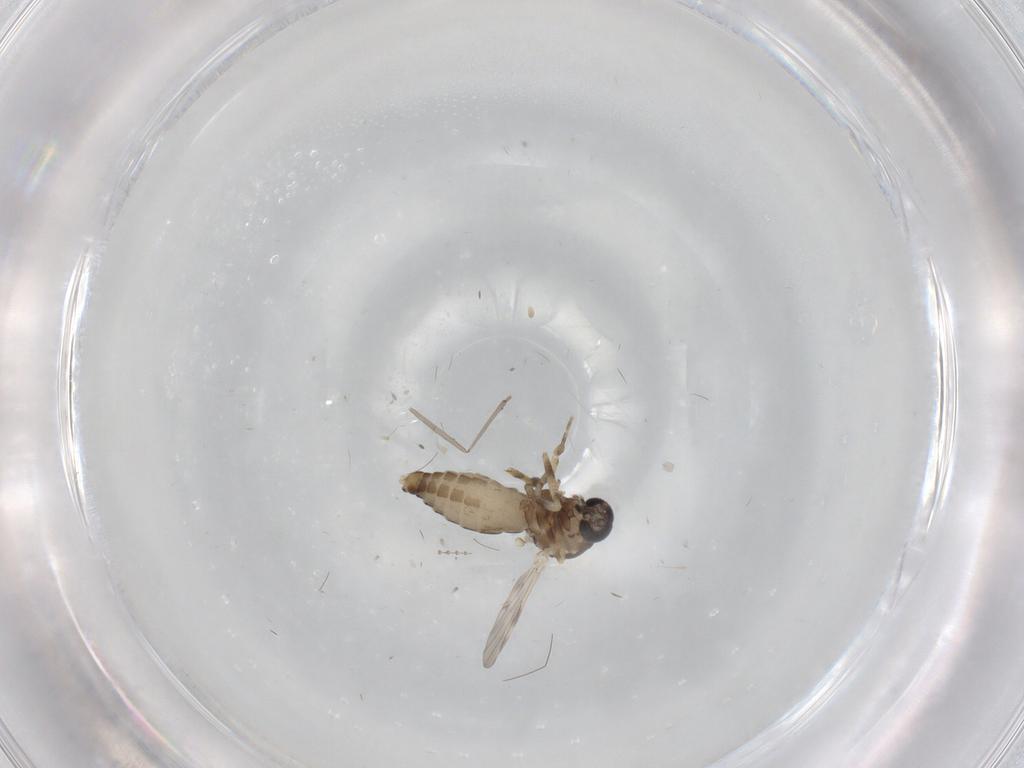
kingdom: Animalia
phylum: Arthropoda
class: Insecta
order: Diptera
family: Ceratopogonidae
